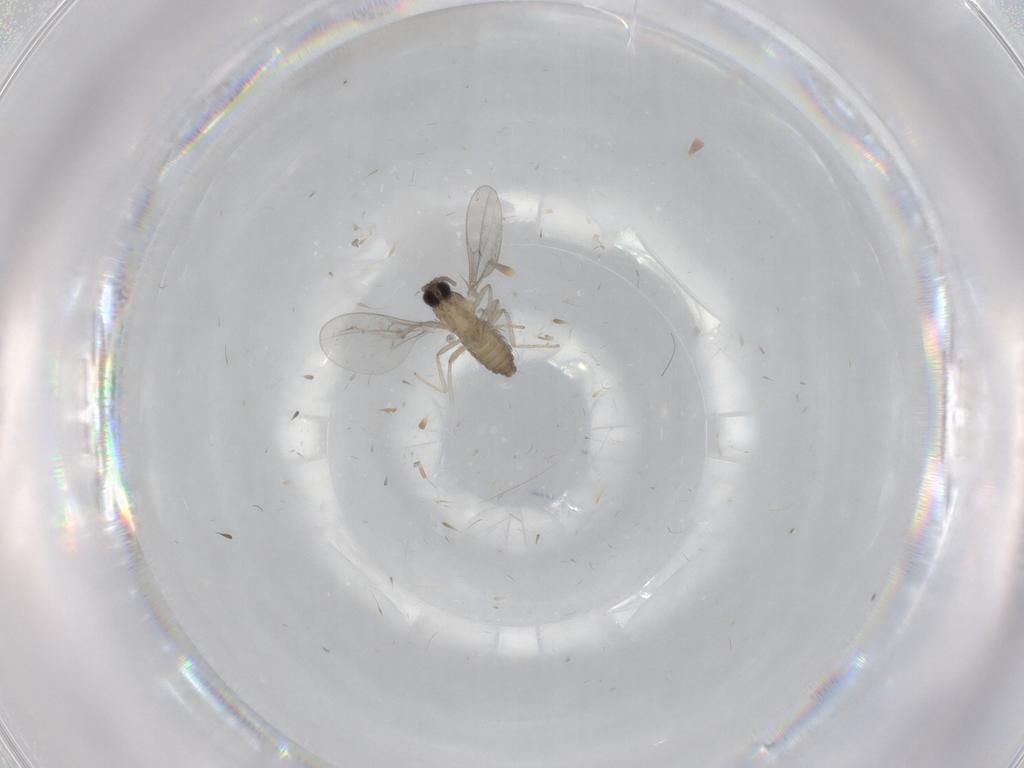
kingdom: Animalia
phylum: Arthropoda
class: Insecta
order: Diptera
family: Cecidomyiidae
